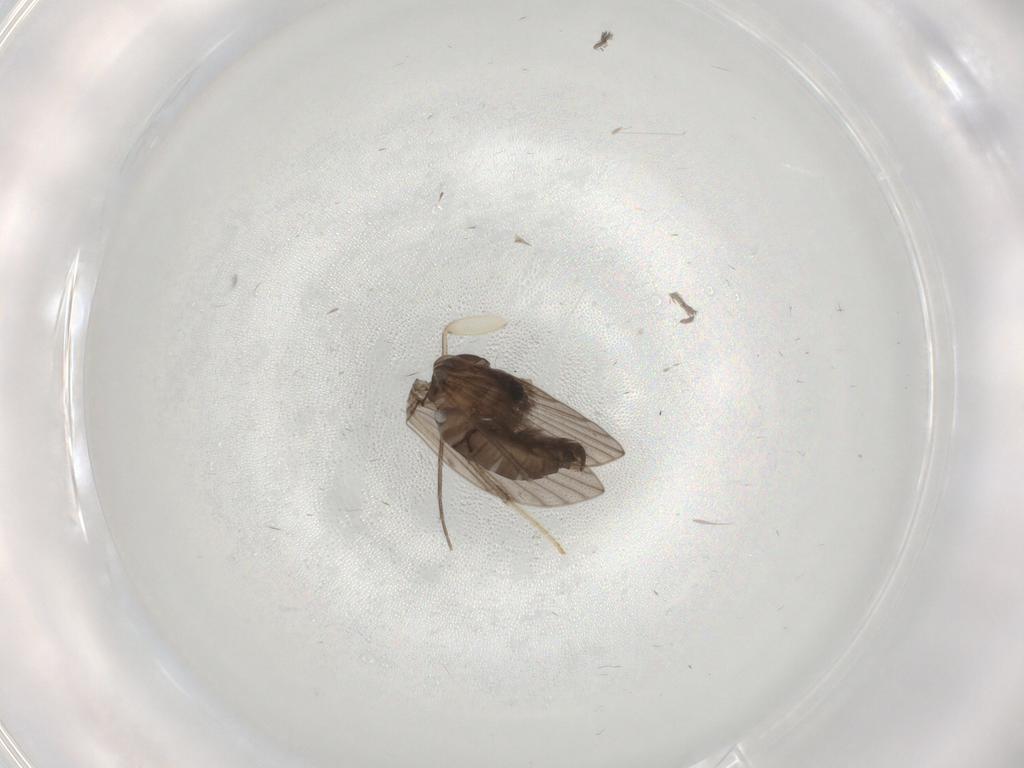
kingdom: Animalia
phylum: Arthropoda
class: Insecta
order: Diptera
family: Psychodidae
